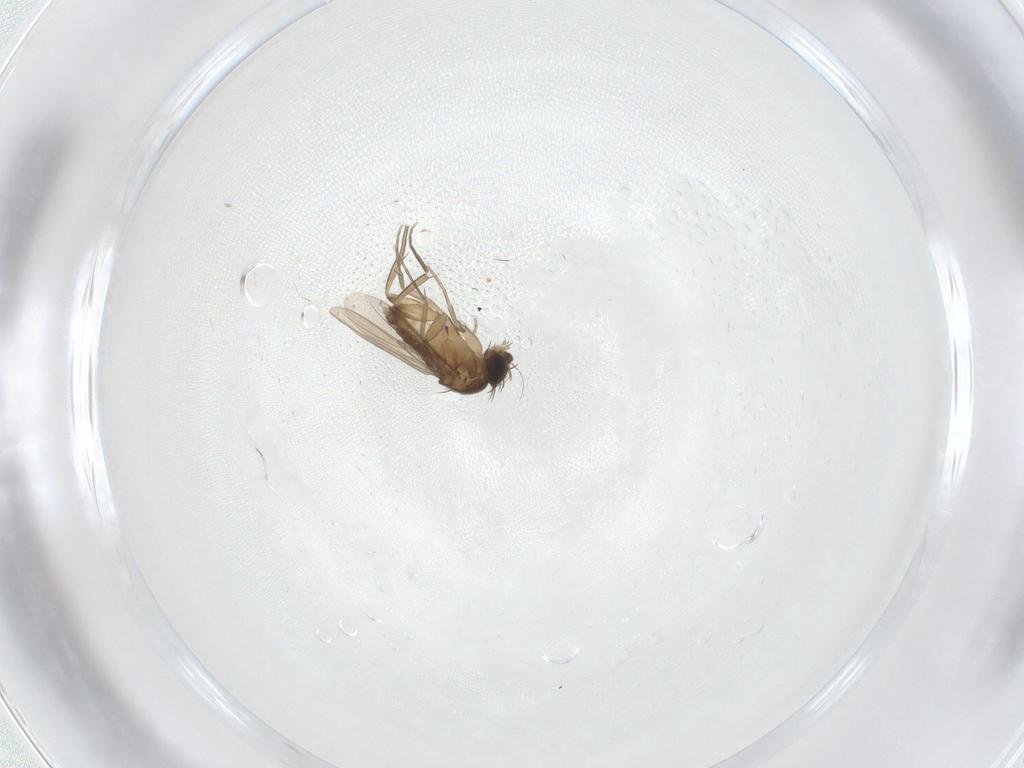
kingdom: Animalia
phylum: Arthropoda
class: Insecta
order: Diptera
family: Phoridae
